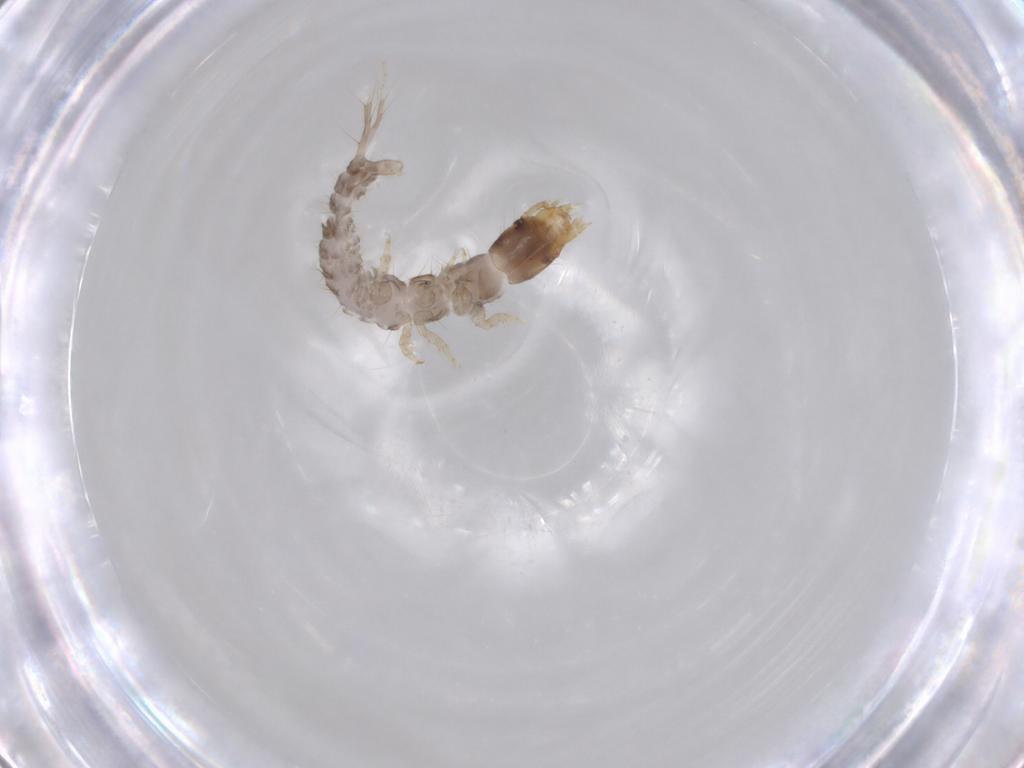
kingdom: Animalia
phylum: Arthropoda
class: Insecta
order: Coleoptera
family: Carabidae
